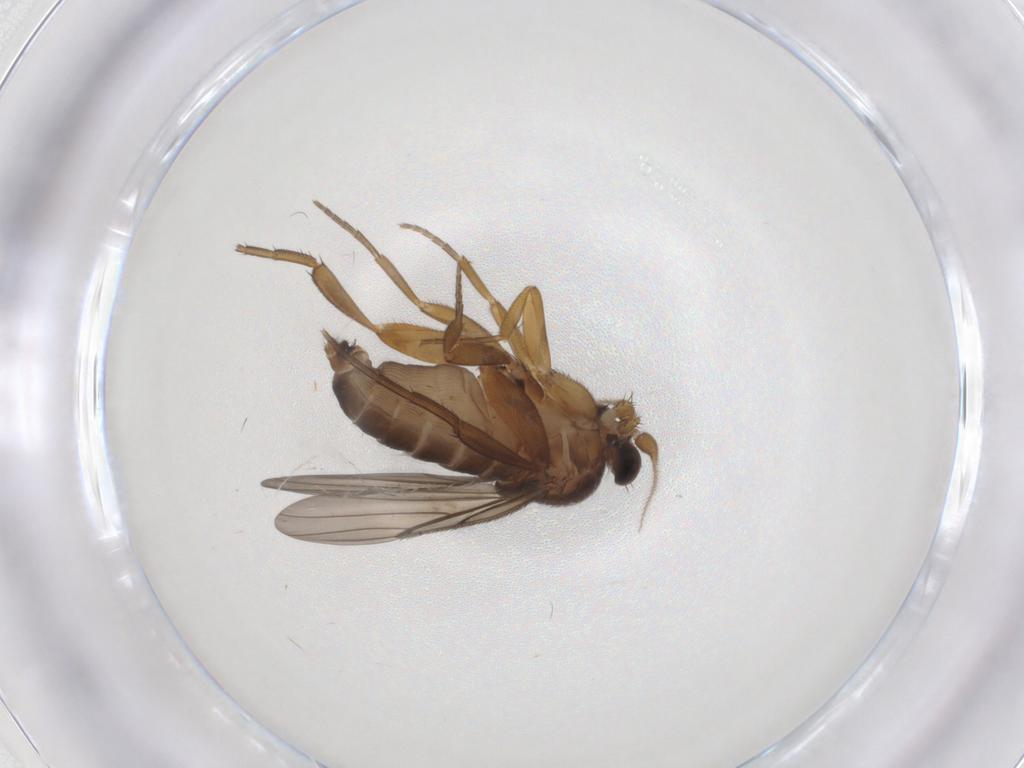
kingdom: Animalia
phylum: Arthropoda
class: Insecta
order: Diptera
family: Phoridae
